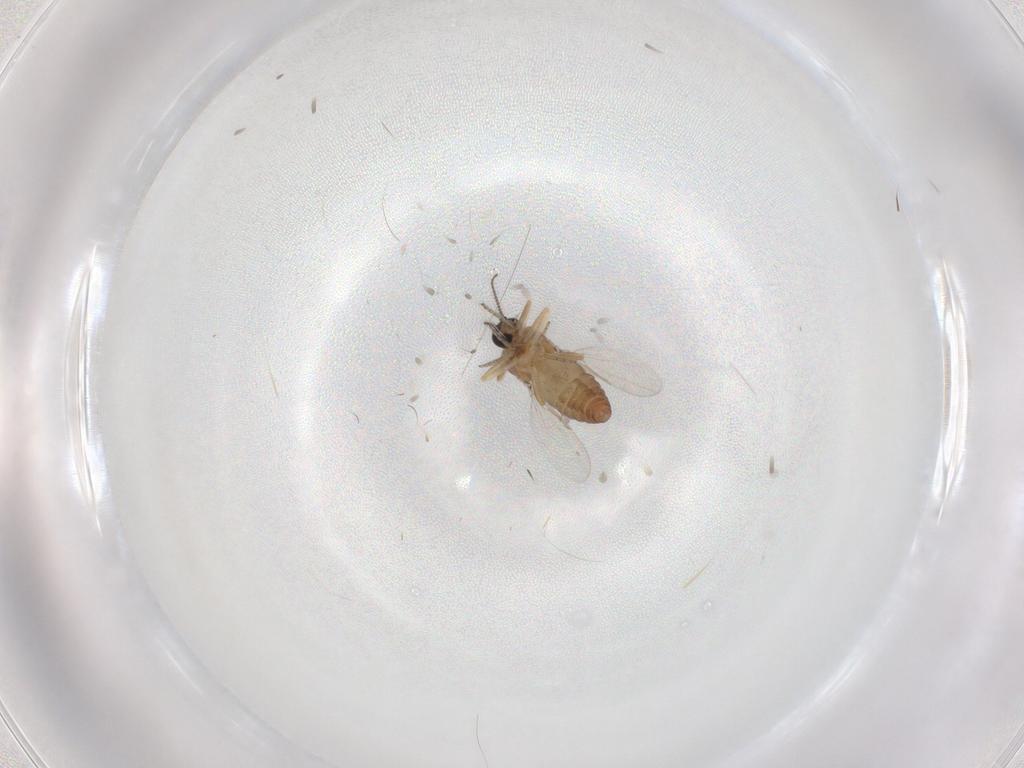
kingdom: Animalia
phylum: Arthropoda
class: Insecta
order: Diptera
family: Ceratopogonidae
